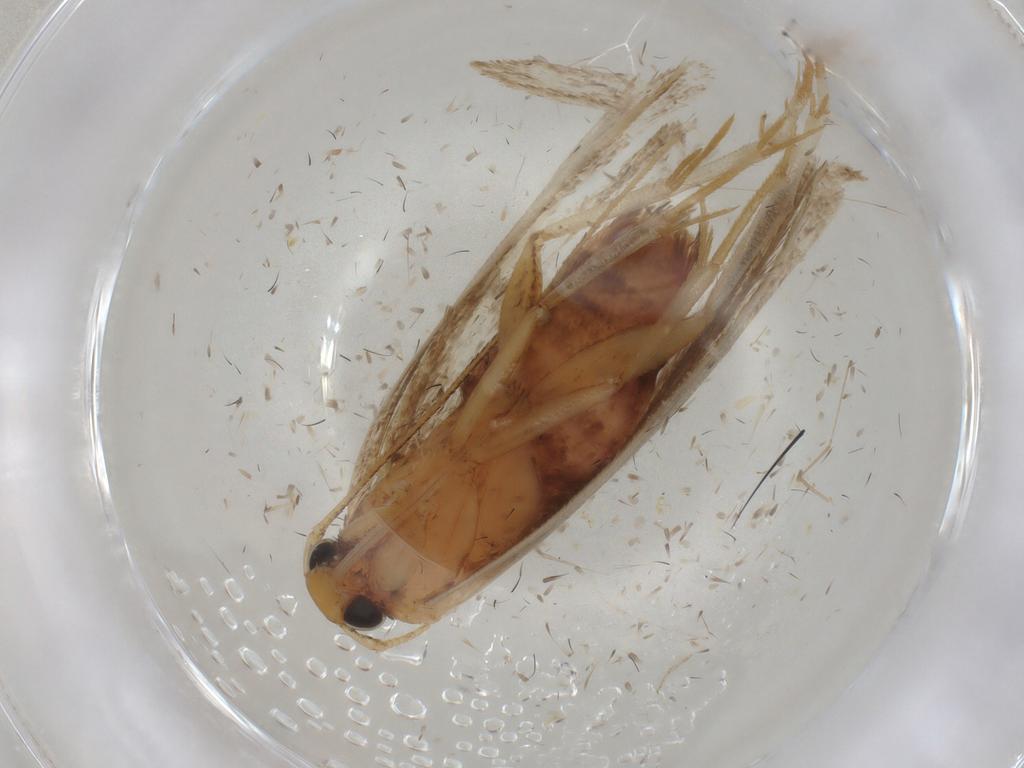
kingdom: Animalia
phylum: Arthropoda
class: Insecta
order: Lepidoptera
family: Lecithoceridae
